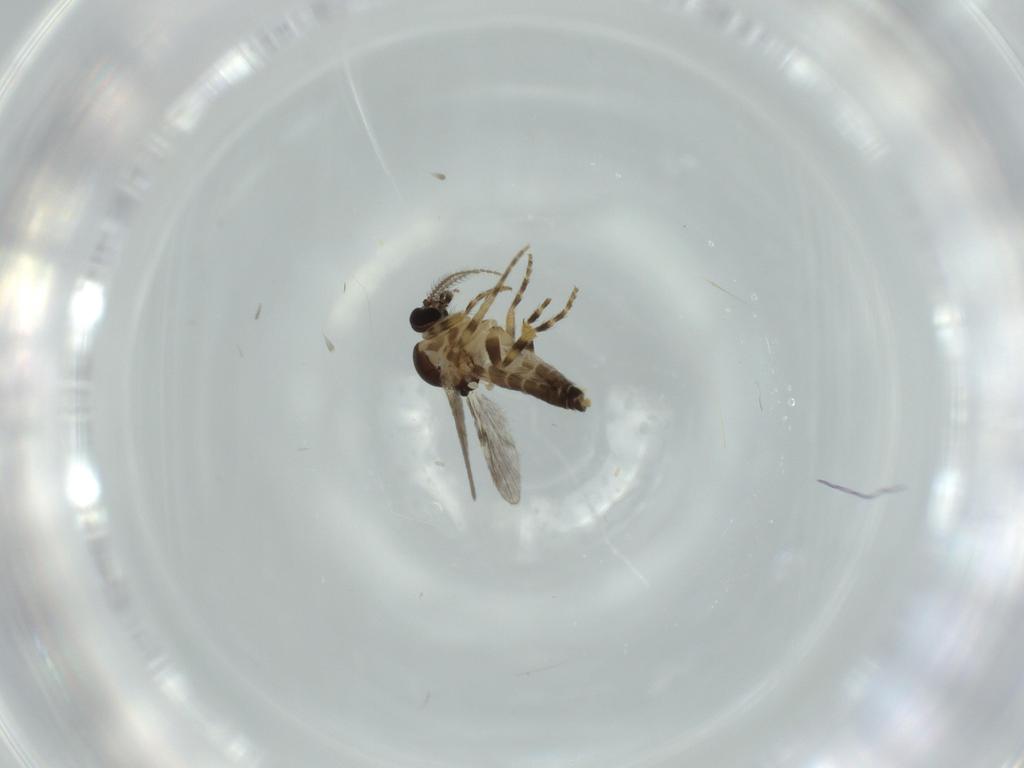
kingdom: Animalia
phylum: Arthropoda
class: Insecta
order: Diptera
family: Ceratopogonidae
